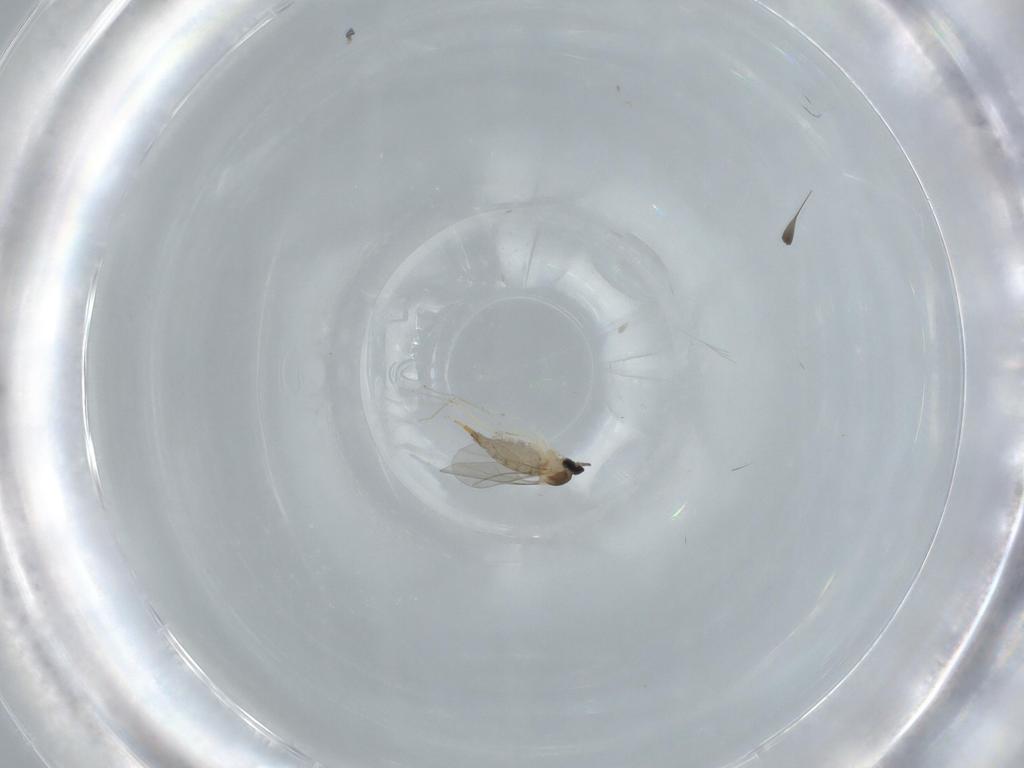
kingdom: Animalia
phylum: Arthropoda
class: Insecta
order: Diptera
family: Cecidomyiidae
